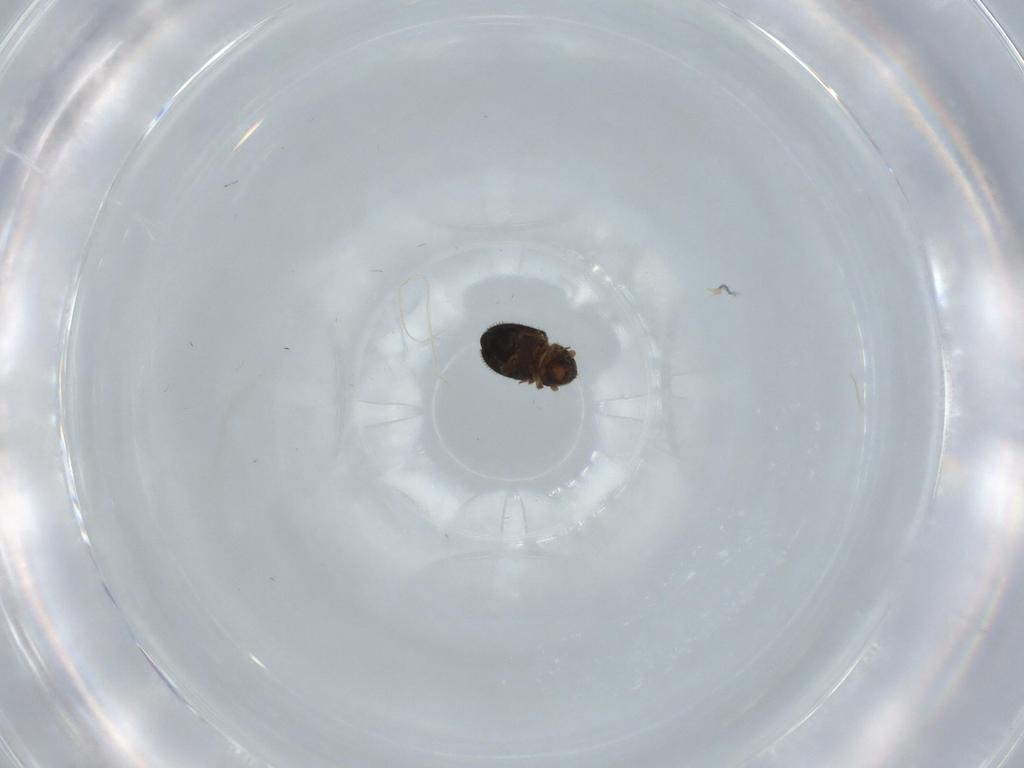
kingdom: Animalia
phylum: Arthropoda
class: Insecta
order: Coleoptera
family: Curculionidae
